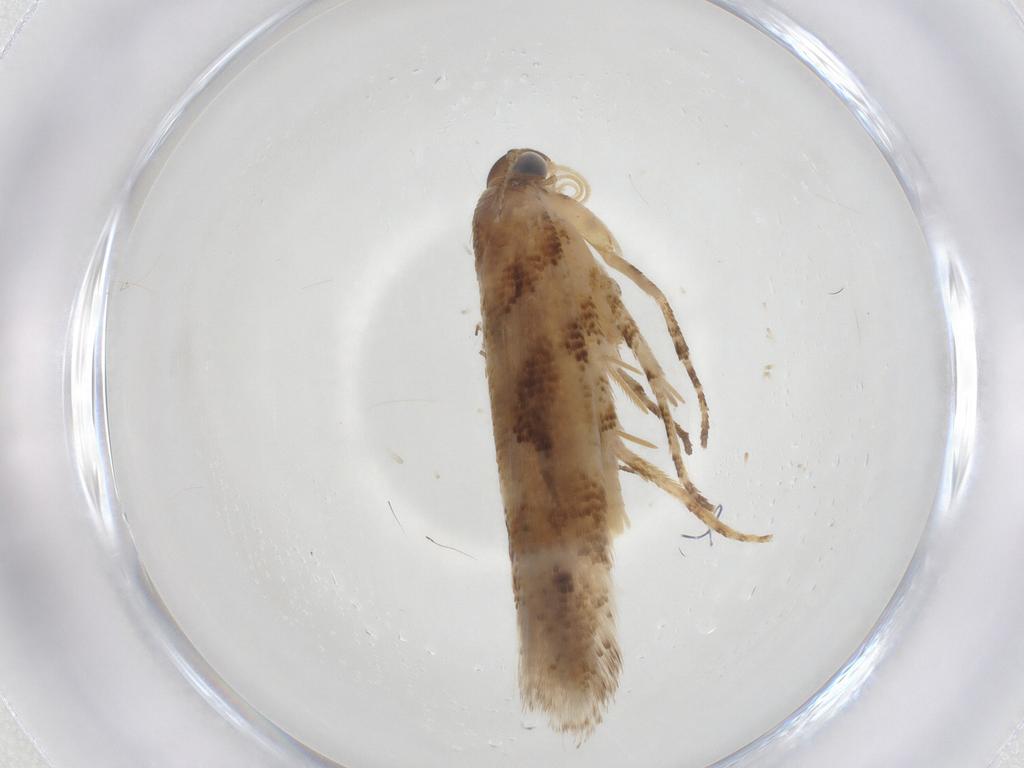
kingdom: Animalia
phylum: Arthropoda
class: Insecta
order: Lepidoptera
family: Gelechiidae
